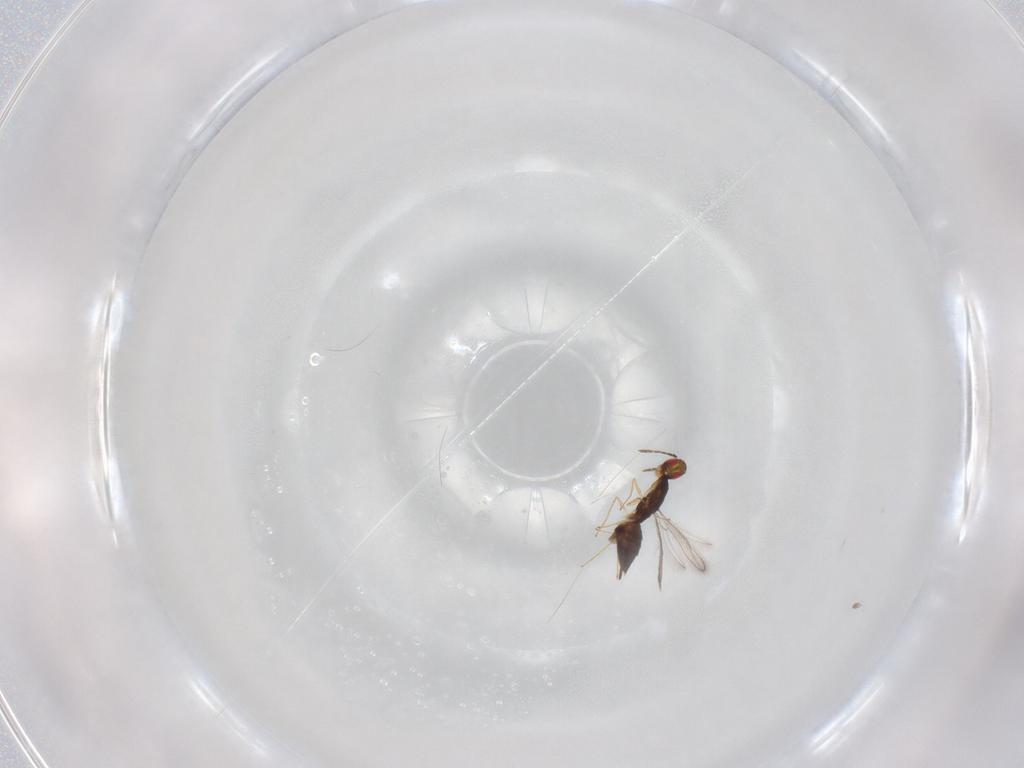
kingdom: Animalia
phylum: Arthropoda
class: Insecta
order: Hymenoptera
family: Eulophidae
